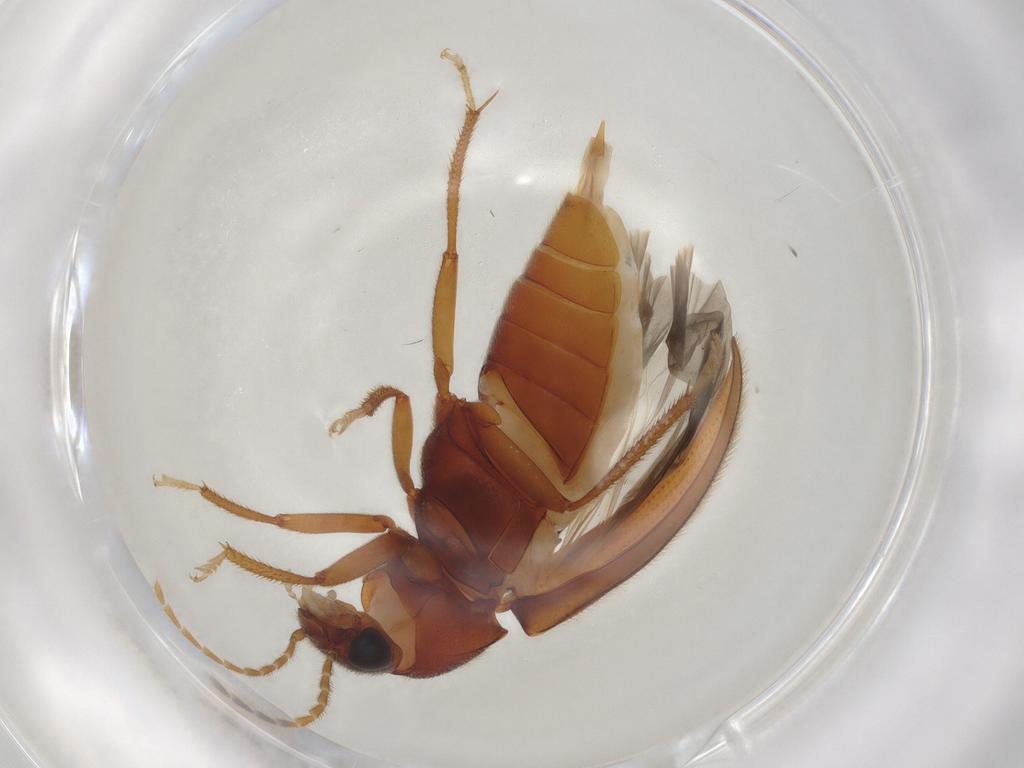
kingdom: Animalia
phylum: Arthropoda
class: Insecta
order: Coleoptera
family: Ptilodactylidae
